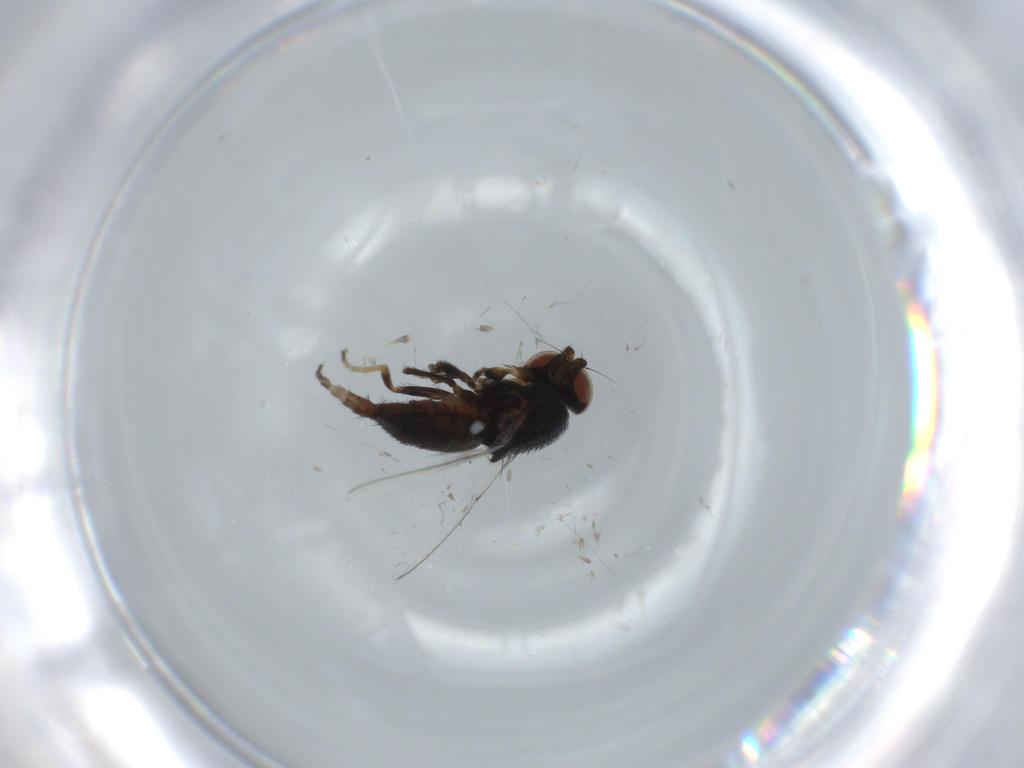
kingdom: Animalia
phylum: Arthropoda
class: Insecta
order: Diptera
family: Milichiidae
